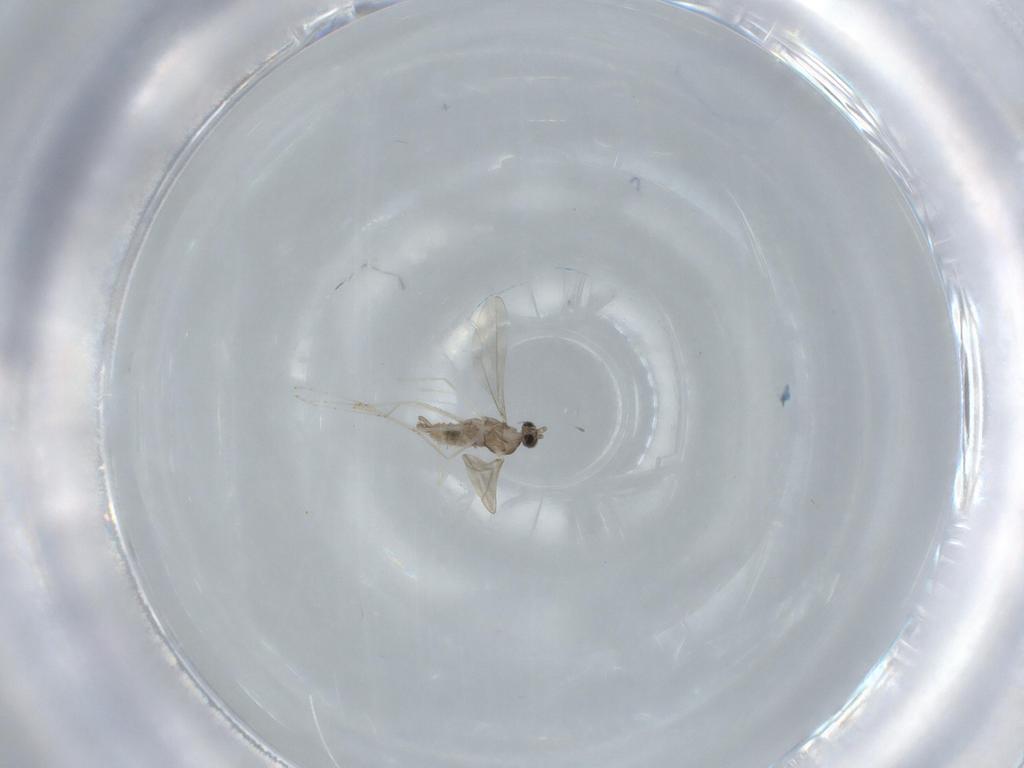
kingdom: Animalia
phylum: Arthropoda
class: Insecta
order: Diptera
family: Cecidomyiidae
